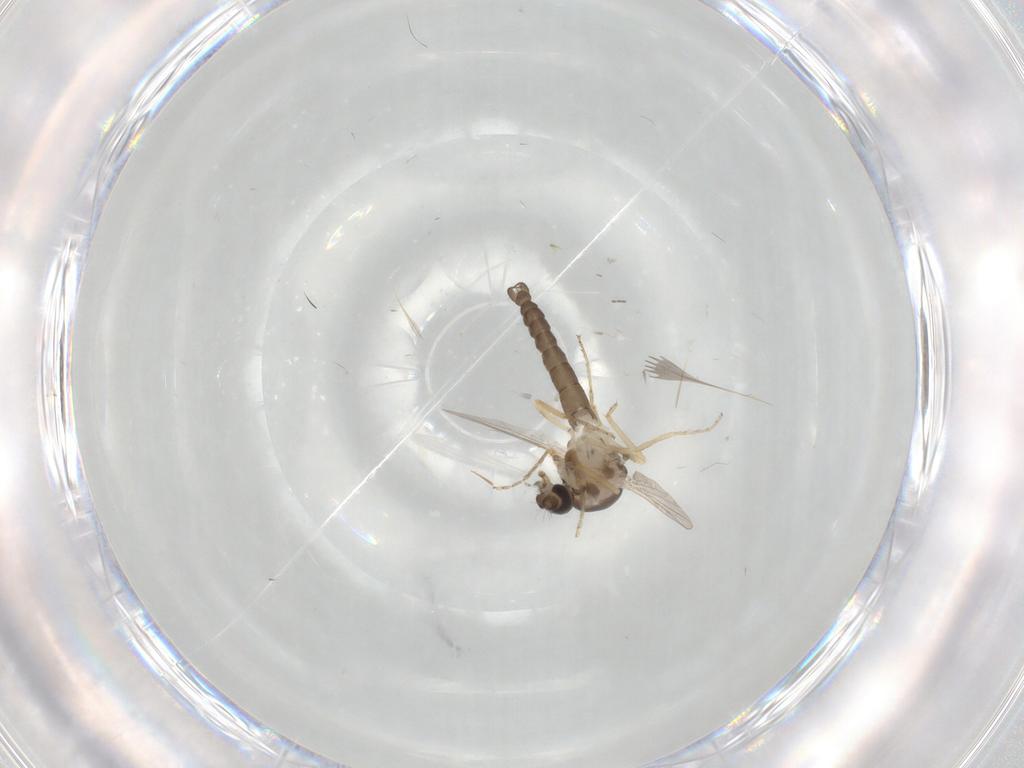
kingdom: Animalia
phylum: Arthropoda
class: Insecta
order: Diptera
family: Ceratopogonidae
